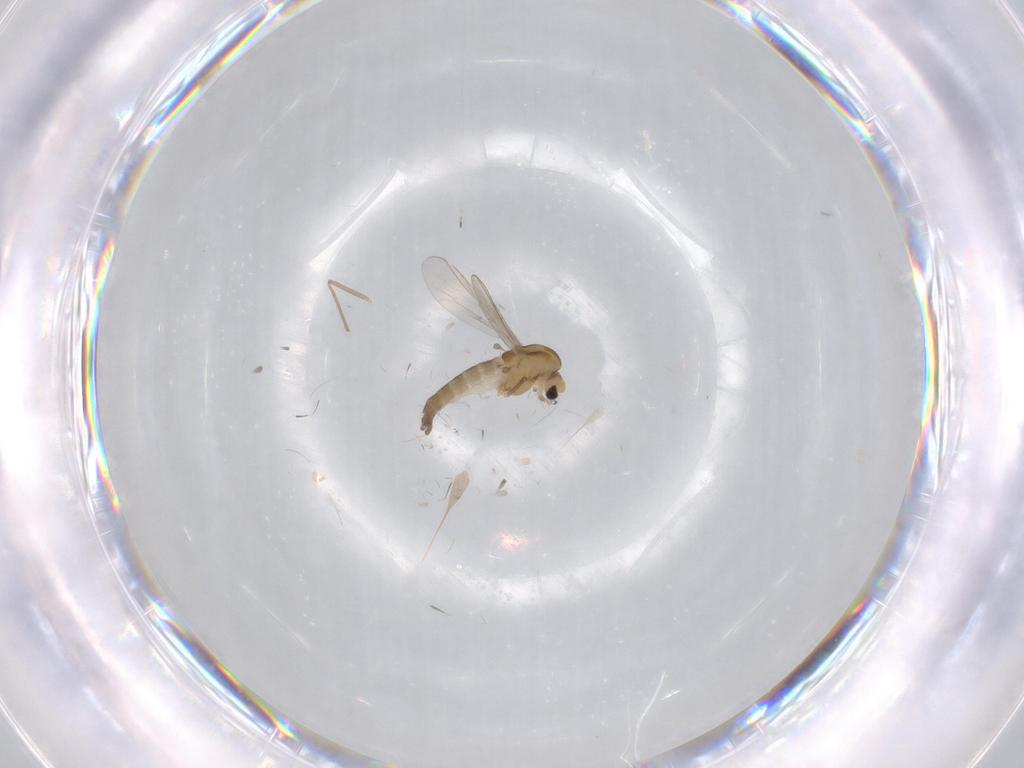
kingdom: Animalia
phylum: Arthropoda
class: Insecta
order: Diptera
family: Chironomidae
